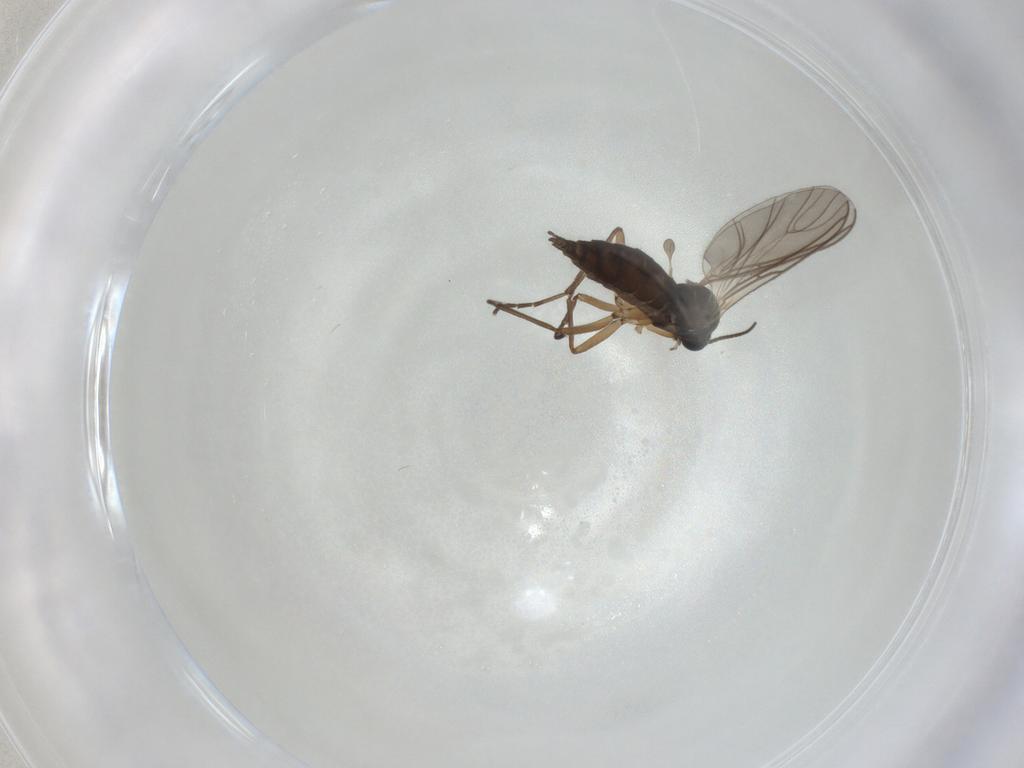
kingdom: Animalia
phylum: Arthropoda
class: Insecta
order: Diptera
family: Sciaridae
